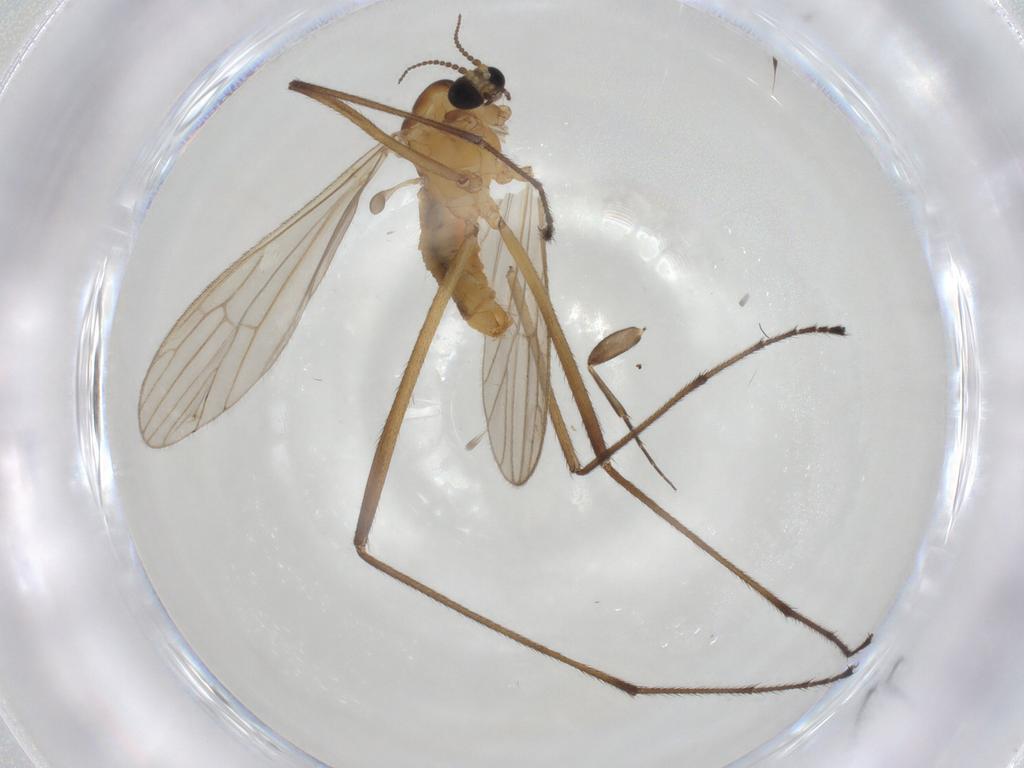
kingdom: Animalia
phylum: Arthropoda
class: Insecta
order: Diptera
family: Limoniidae
